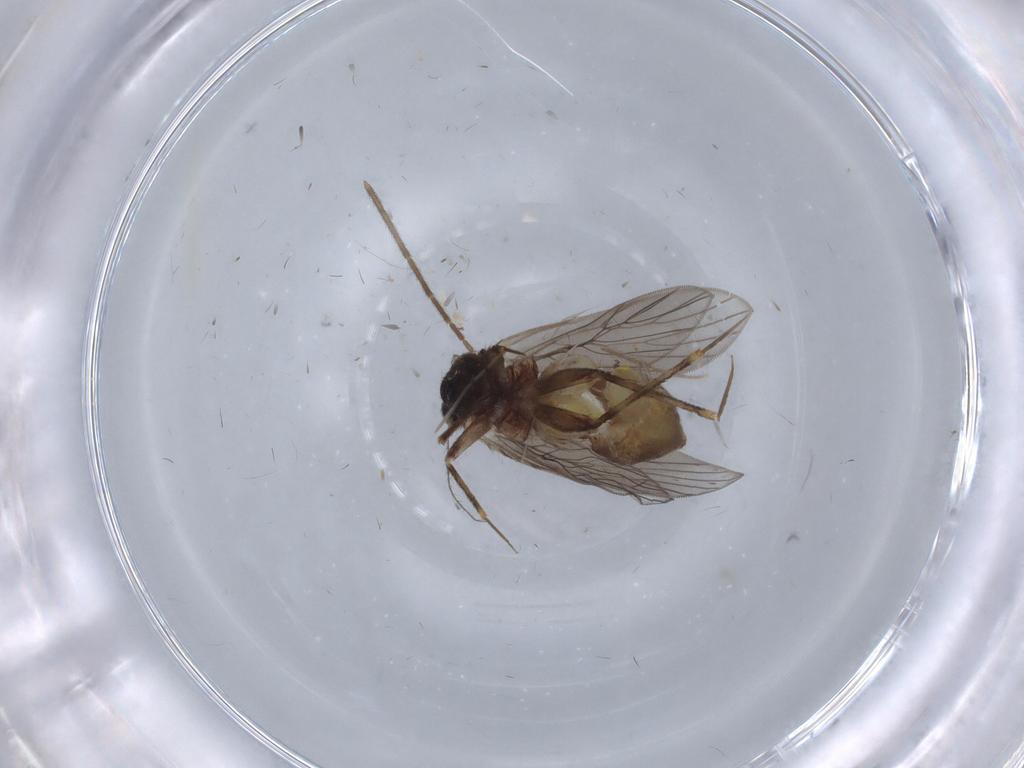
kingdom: Animalia
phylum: Arthropoda
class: Insecta
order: Psocodea
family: Lepidopsocidae
